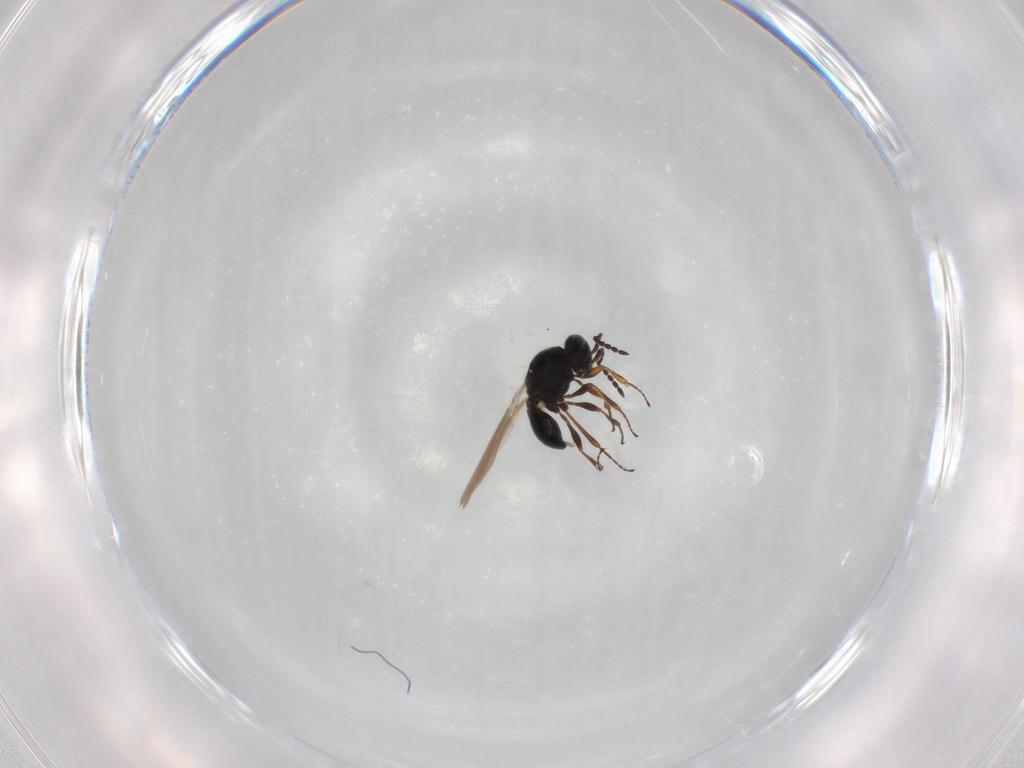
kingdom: Animalia
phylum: Arthropoda
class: Insecta
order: Hymenoptera
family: Platygastridae
